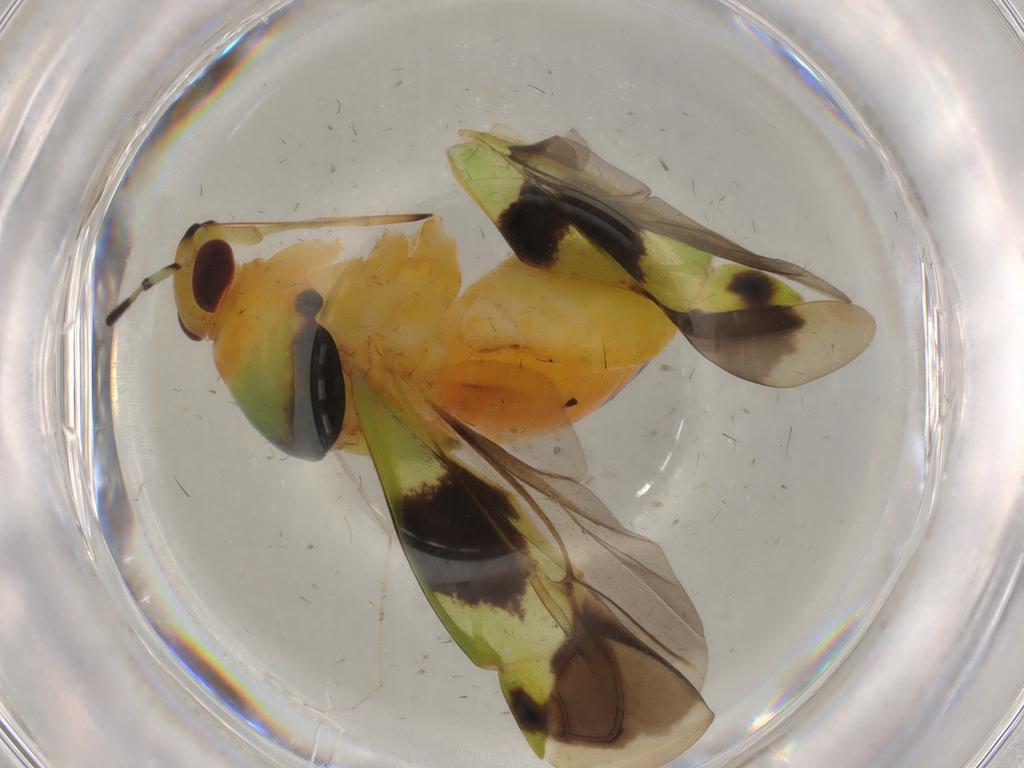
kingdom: Animalia
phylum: Arthropoda
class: Insecta
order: Hemiptera
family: Cercopidae
